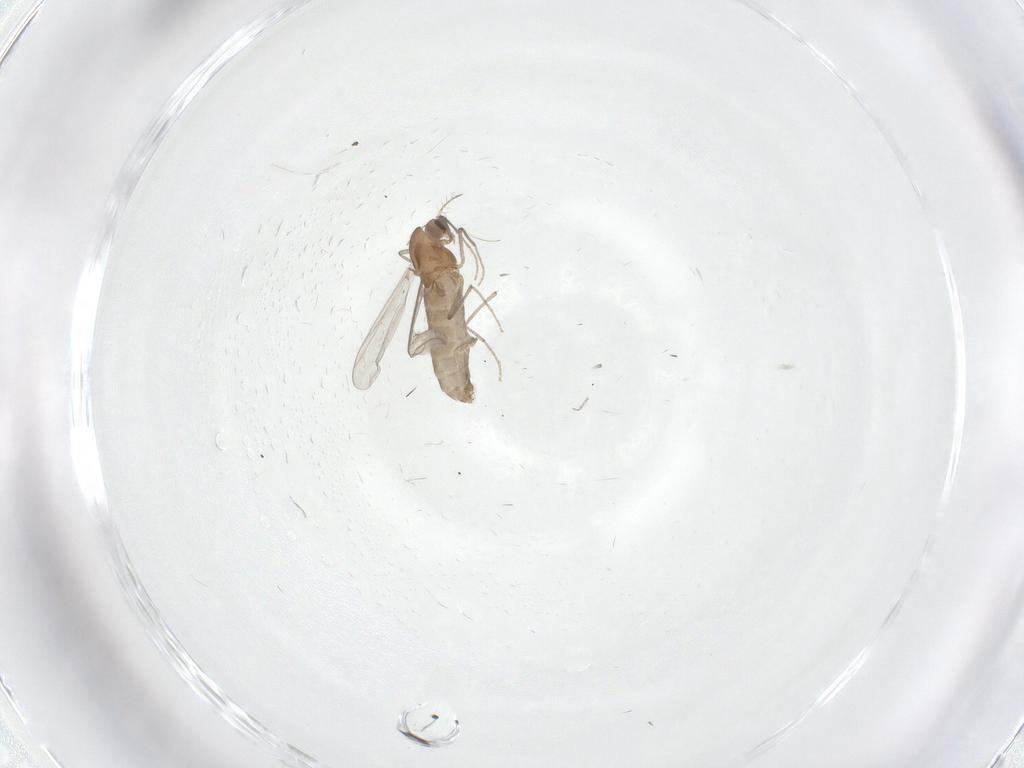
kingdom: Animalia
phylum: Arthropoda
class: Insecta
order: Diptera
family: Chironomidae
